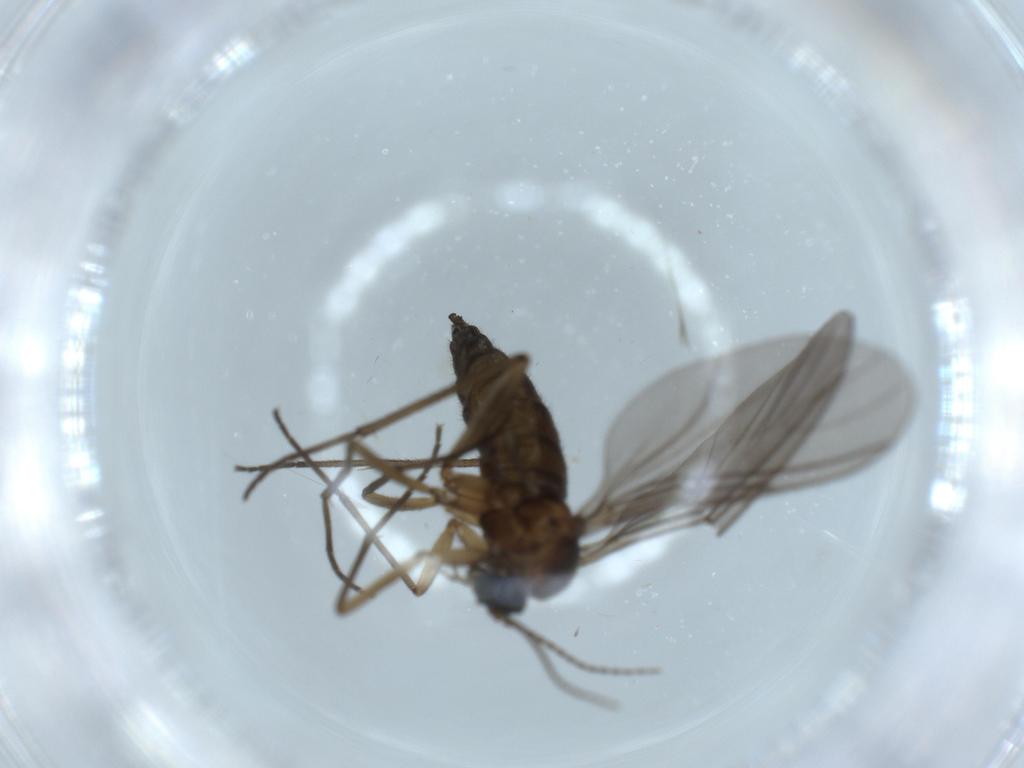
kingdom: Animalia
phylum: Arthropoda
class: Insecta
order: Diptera
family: Sciaridae
